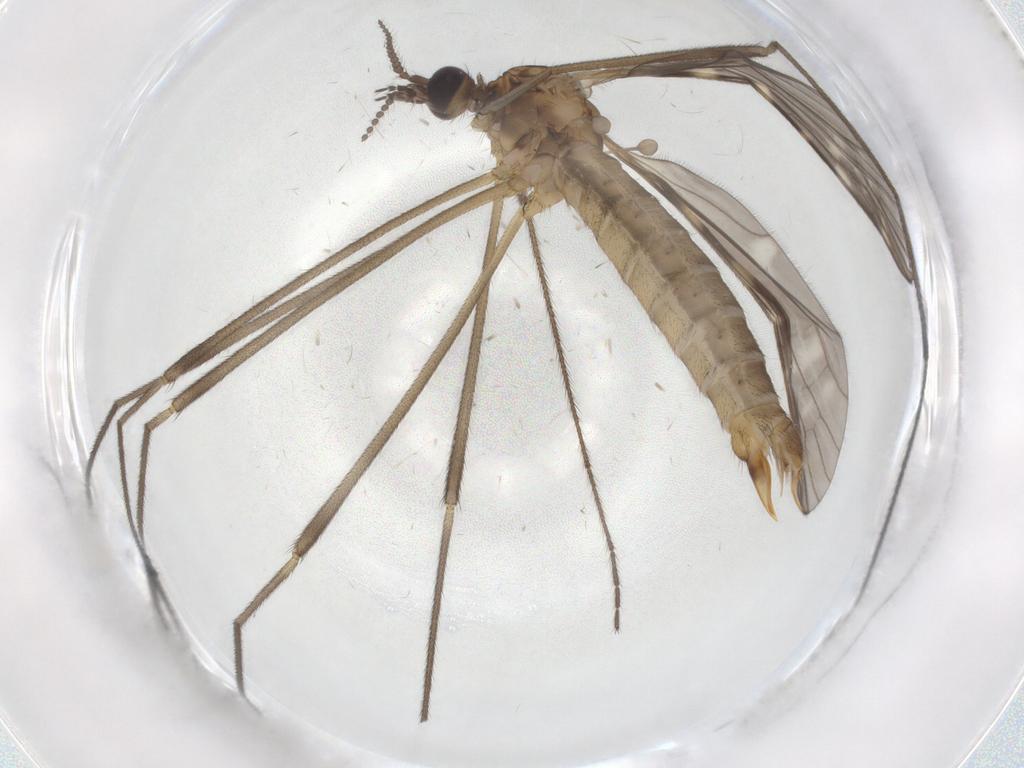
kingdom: Animalia
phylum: Arthropoda
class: Insecta
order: Diptera
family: Chironomidae
